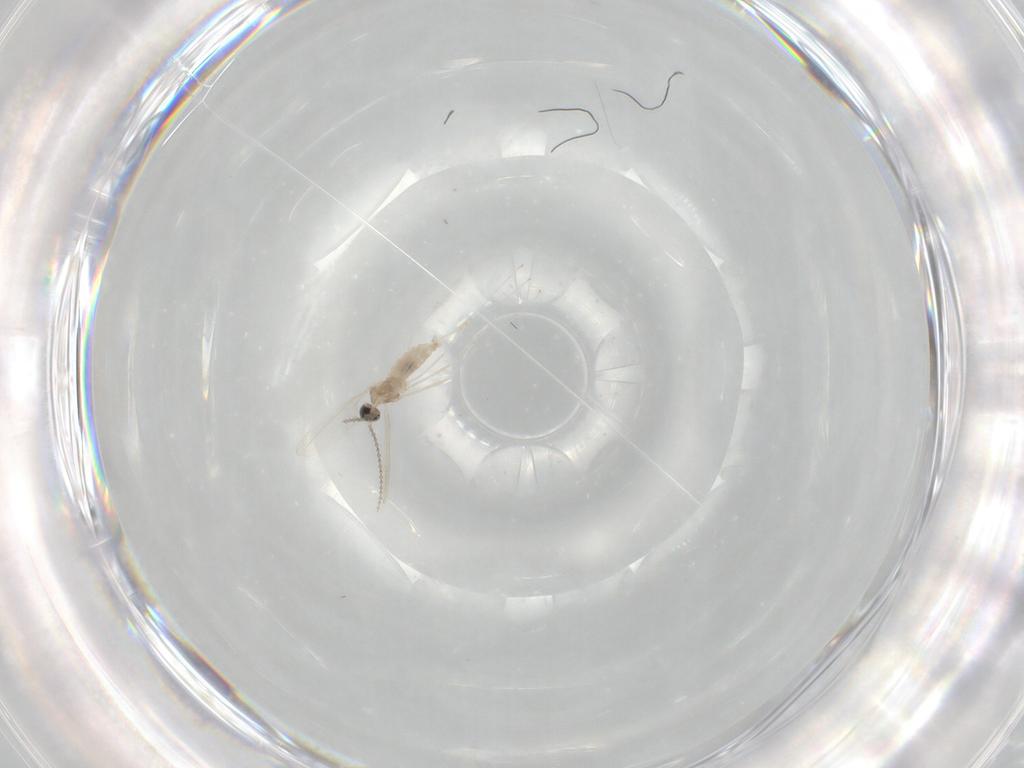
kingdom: Animalia
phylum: Arthropoda
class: Insecta
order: Diptera
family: Cecidomyiidae
